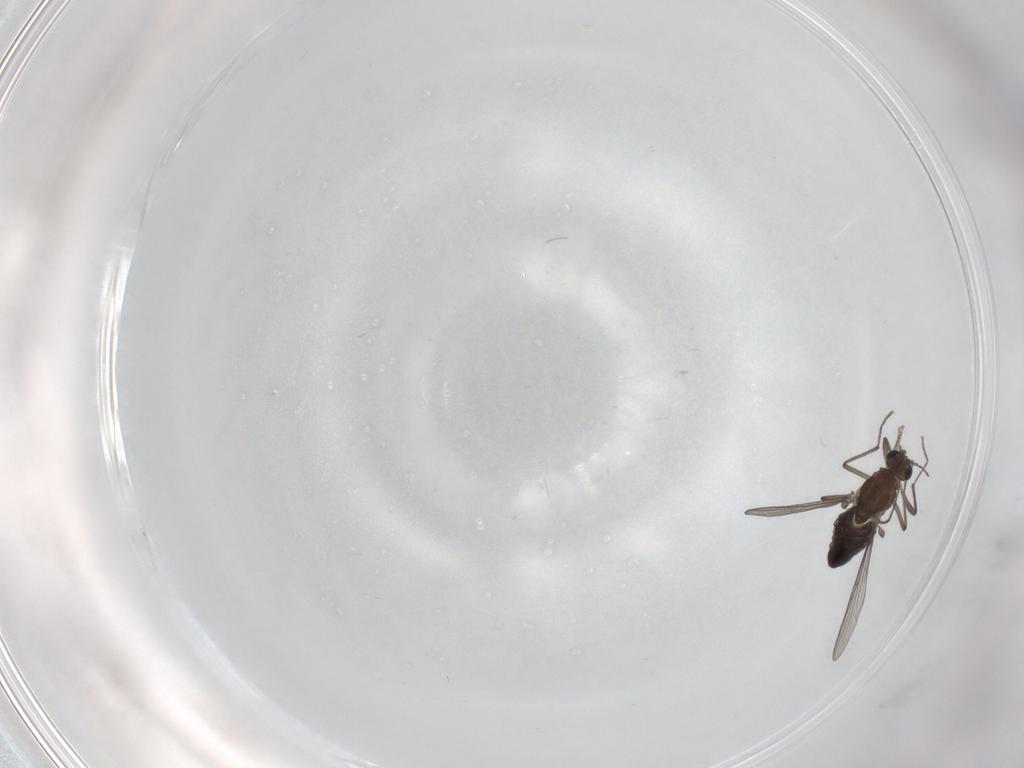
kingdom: Animalia
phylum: Arthropoda
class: Insecta
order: Diptera
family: Chironomidae
